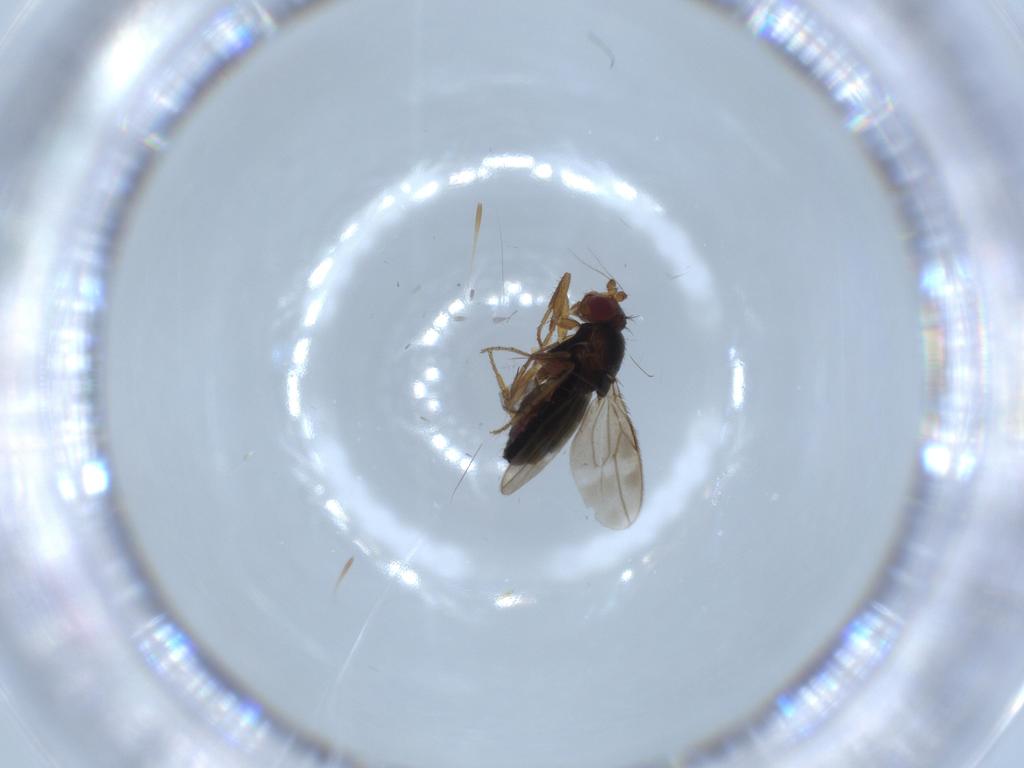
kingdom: Animalia
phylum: Arthropoda
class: Insecta
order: Diptera
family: Sphaeroceridae
